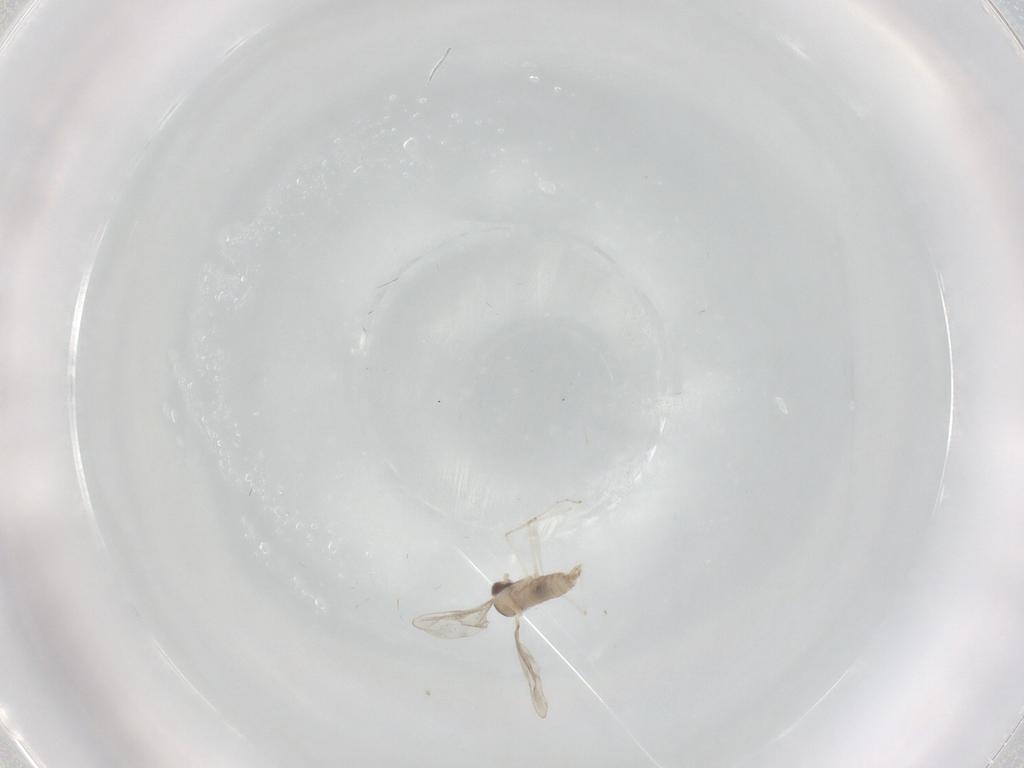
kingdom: Animalia
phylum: Arthropoda
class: Insecta
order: Diptera
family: Cecidomyiidae
